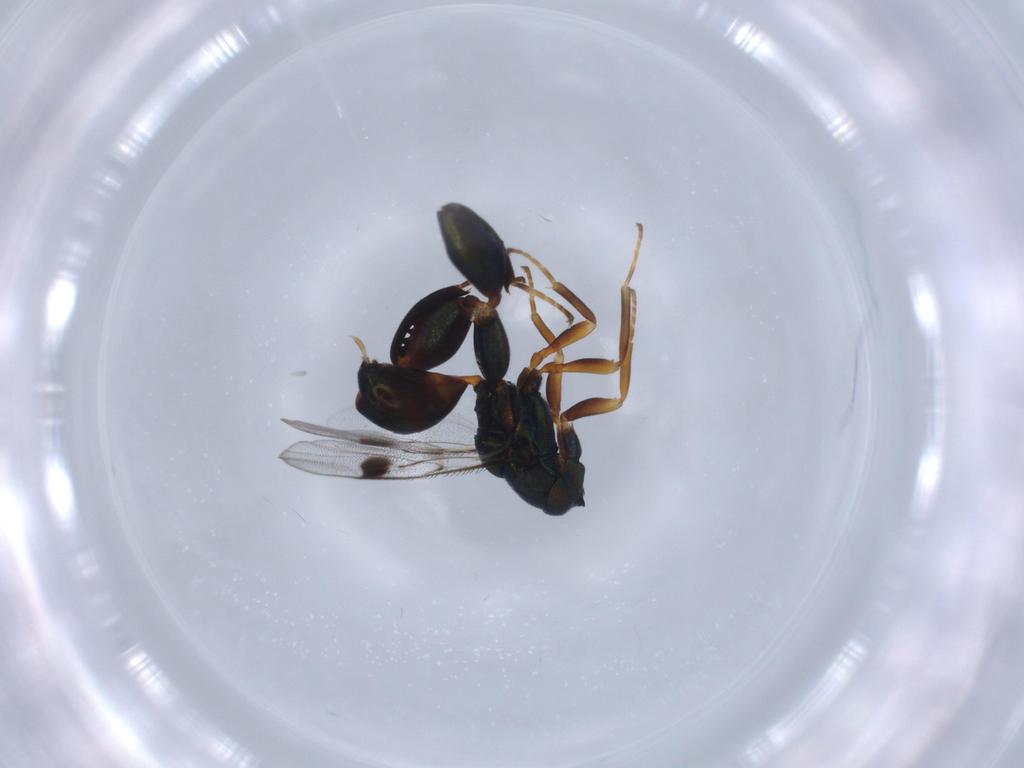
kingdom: Animalia
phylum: Arthropoda
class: Insecta
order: Hymenoptera
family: Torymidae
